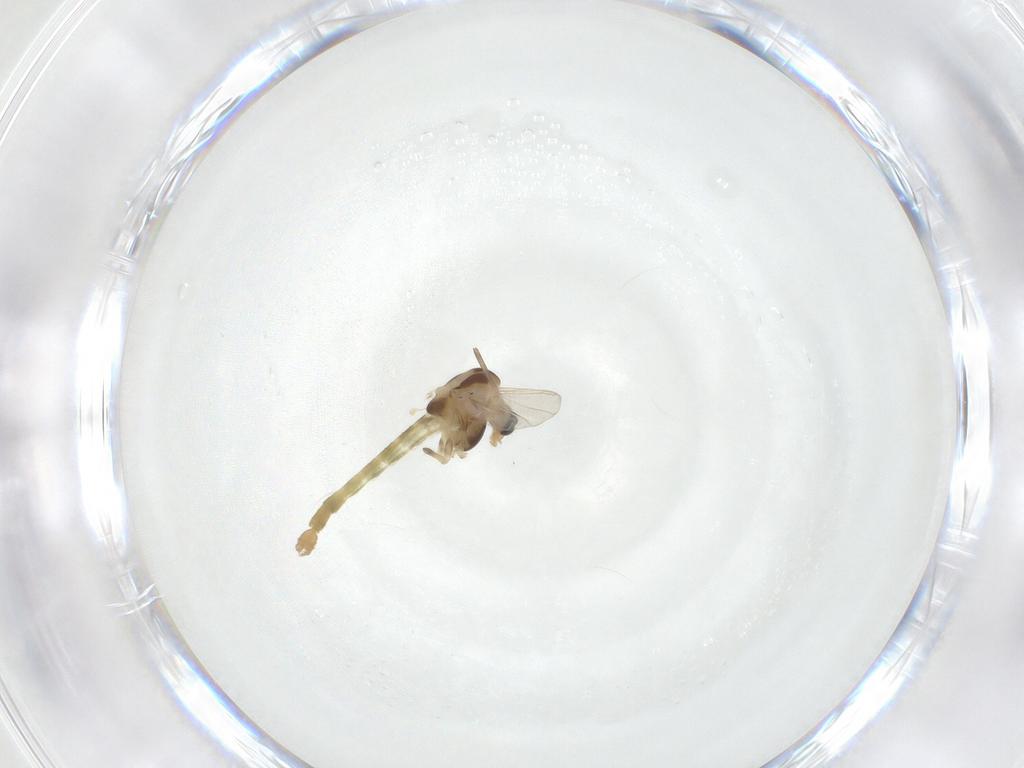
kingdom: Animalia
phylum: Arthropoda
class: Insecta
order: Diptera
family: Chironomidae
